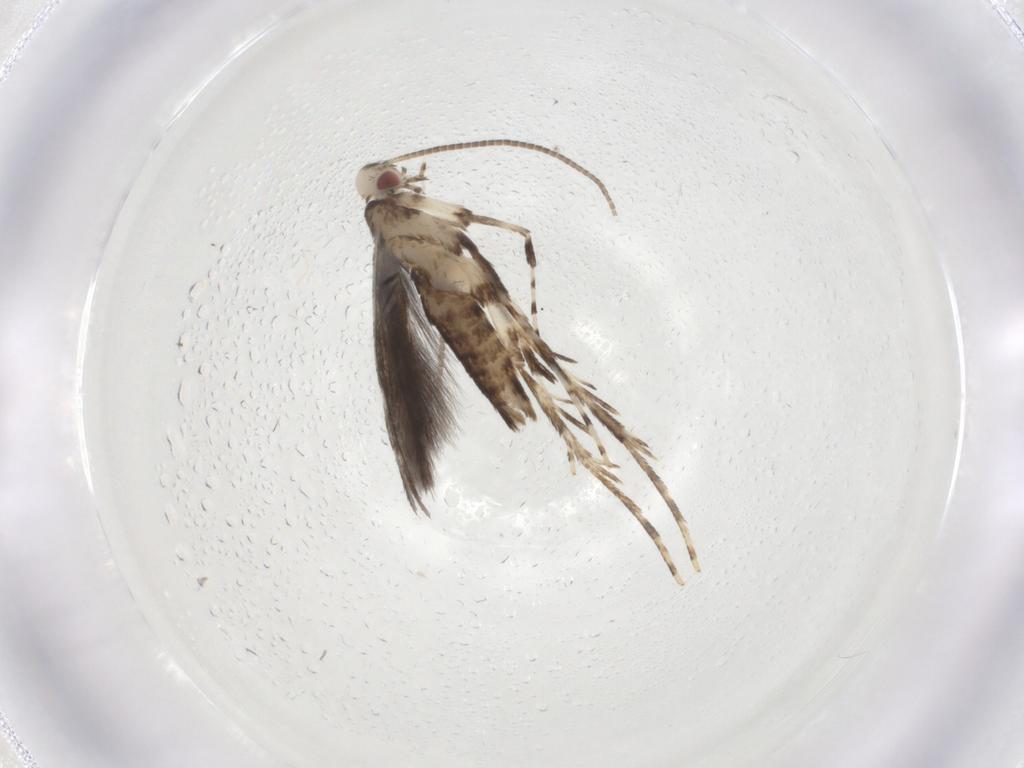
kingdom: Animalia
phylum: Arthropoda
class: Insecta
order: Lepidoptera
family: Gracillariidae
